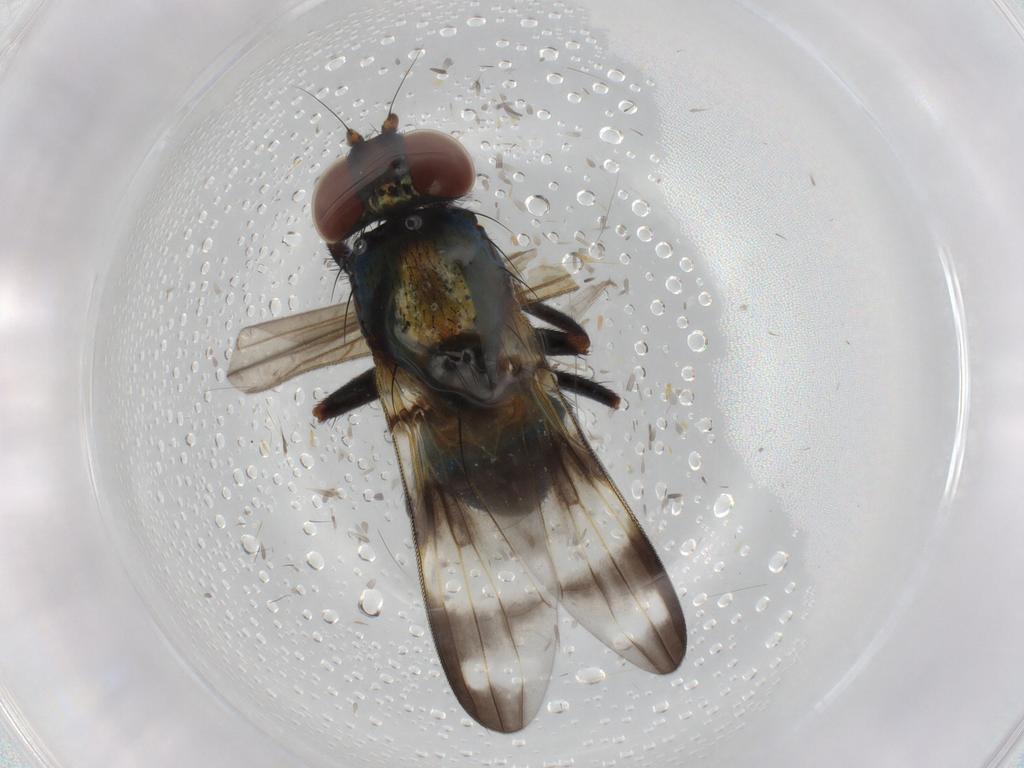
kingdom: Animalia
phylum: Arthropoda
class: Insecta
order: Diptera
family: Ulidiidae
